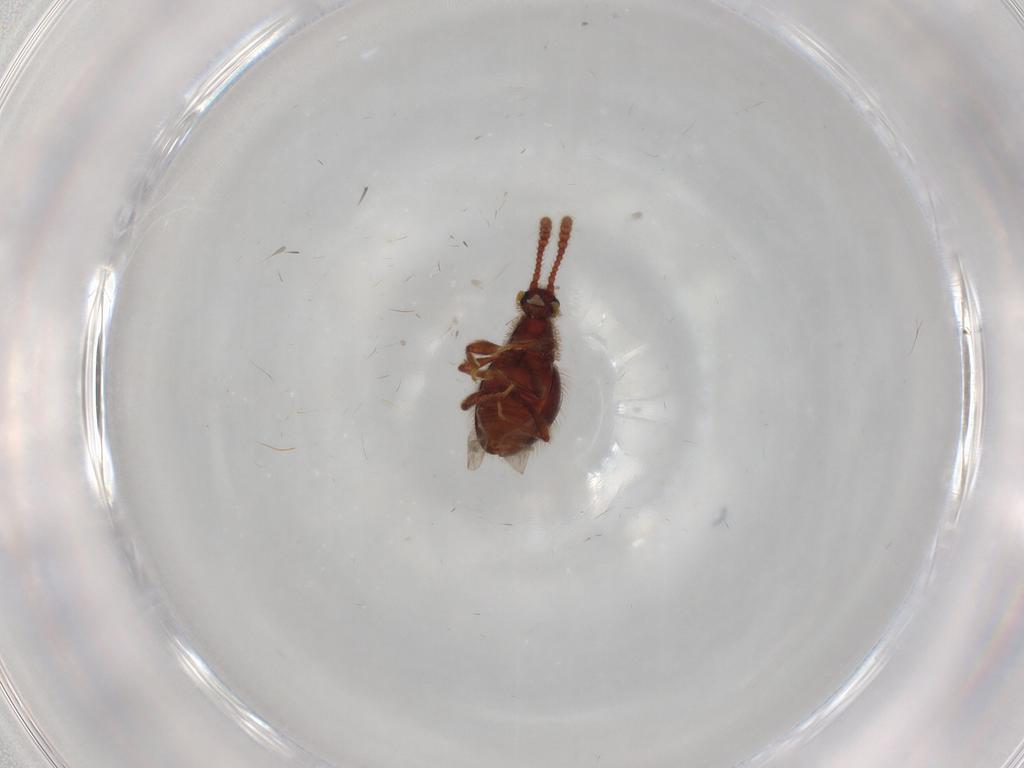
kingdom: Animalia
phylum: Arthropoda
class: Insecta
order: Coleoptera
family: Staphylinidae
